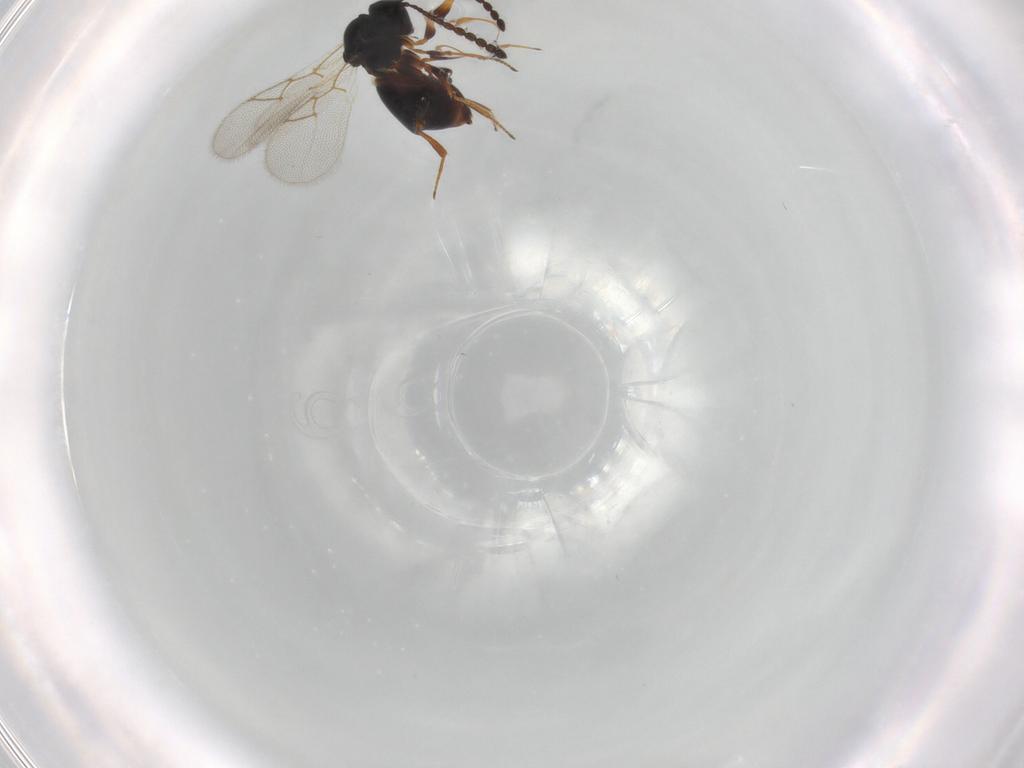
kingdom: Animalia
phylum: Arthropoda
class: Insecta
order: Hymenoptera
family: Figitidae
